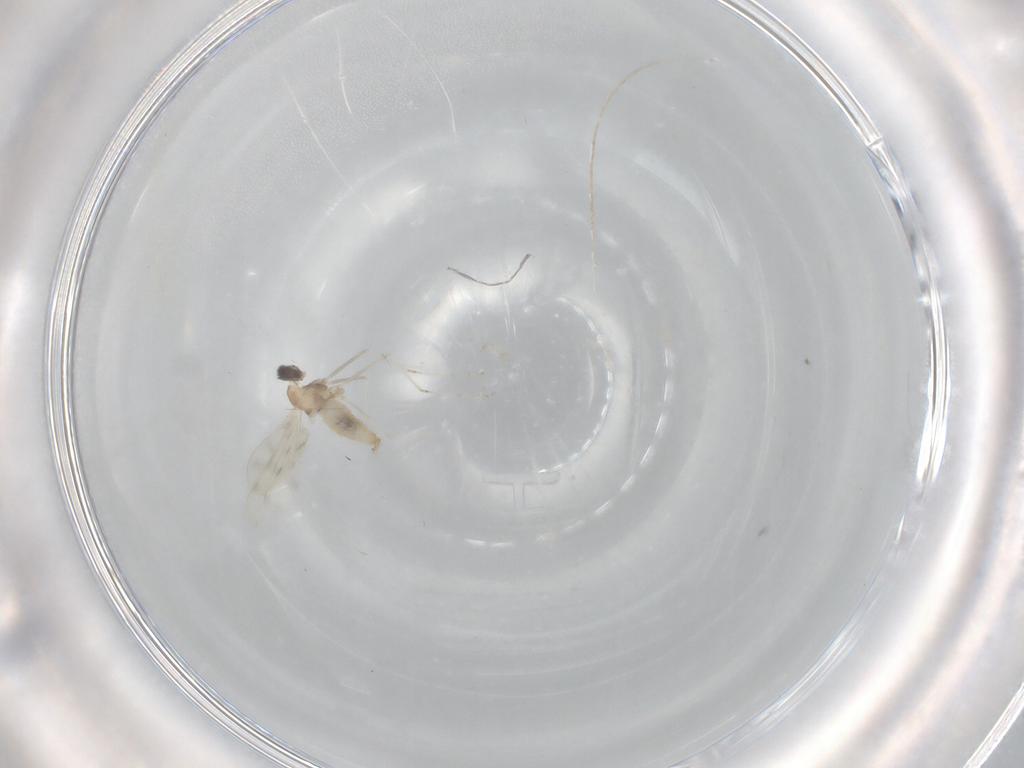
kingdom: Animalia
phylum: Arthropoda
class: Insecta
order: Diptera
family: Cecidomyiidae
